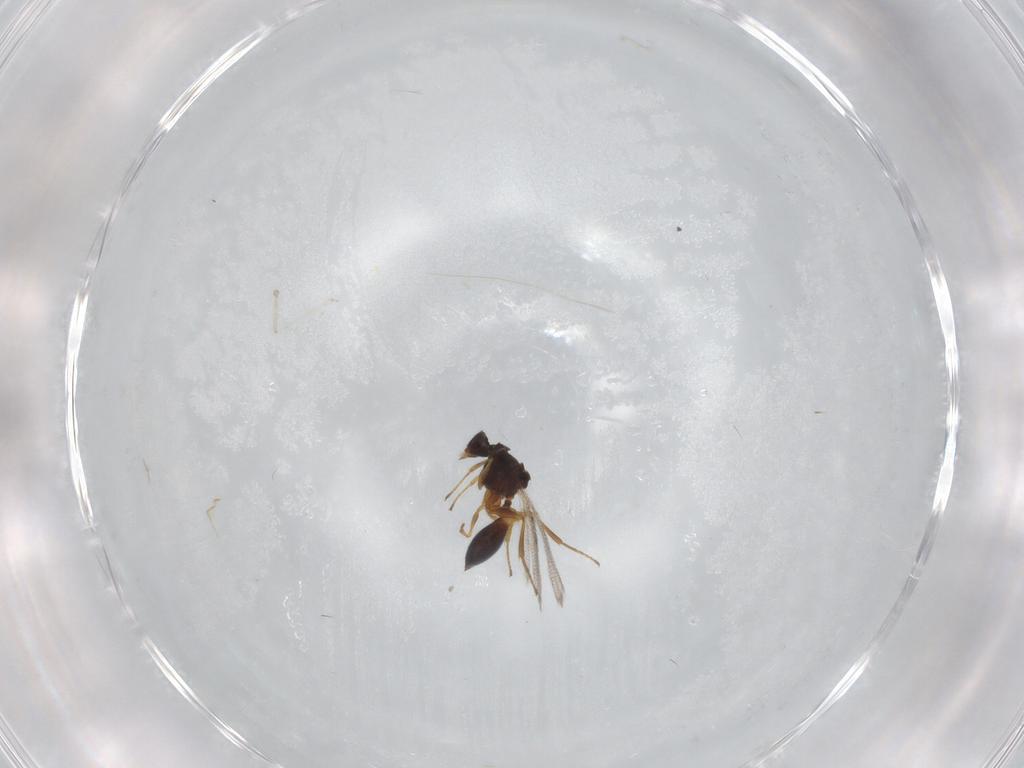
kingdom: Animalia
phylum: Arthropoda
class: Insecta
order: Hymenoptera
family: Figitidae
